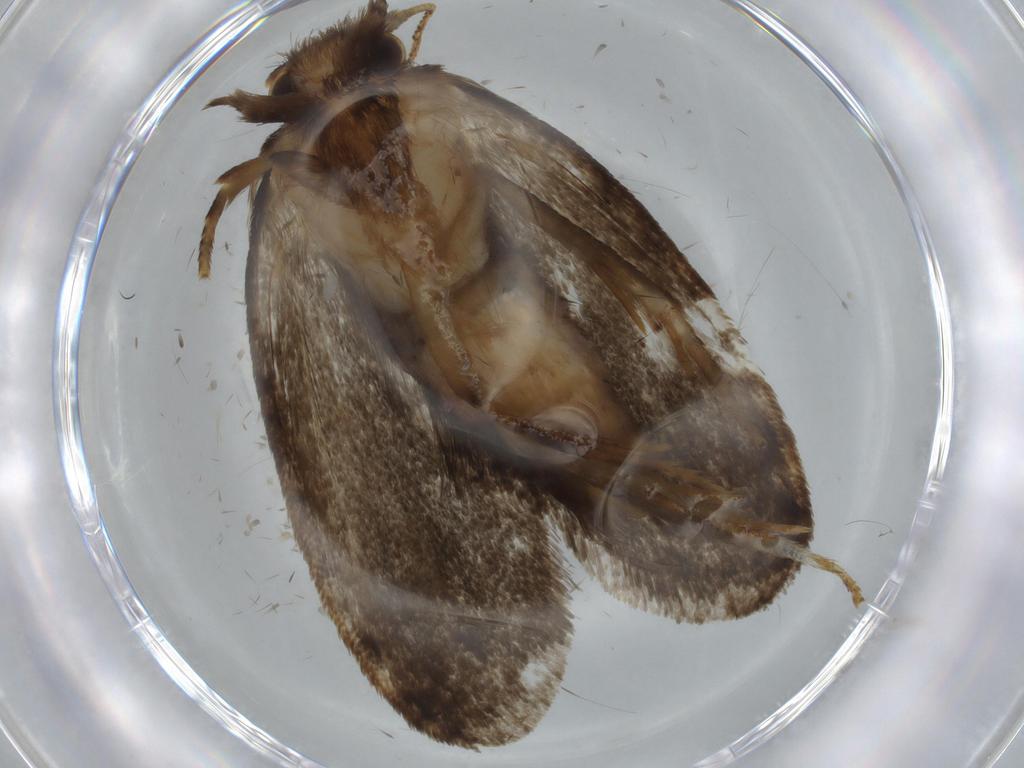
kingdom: Animalia
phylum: Arthropoda
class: Insecta
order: Lepidoptera
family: Tineidae
